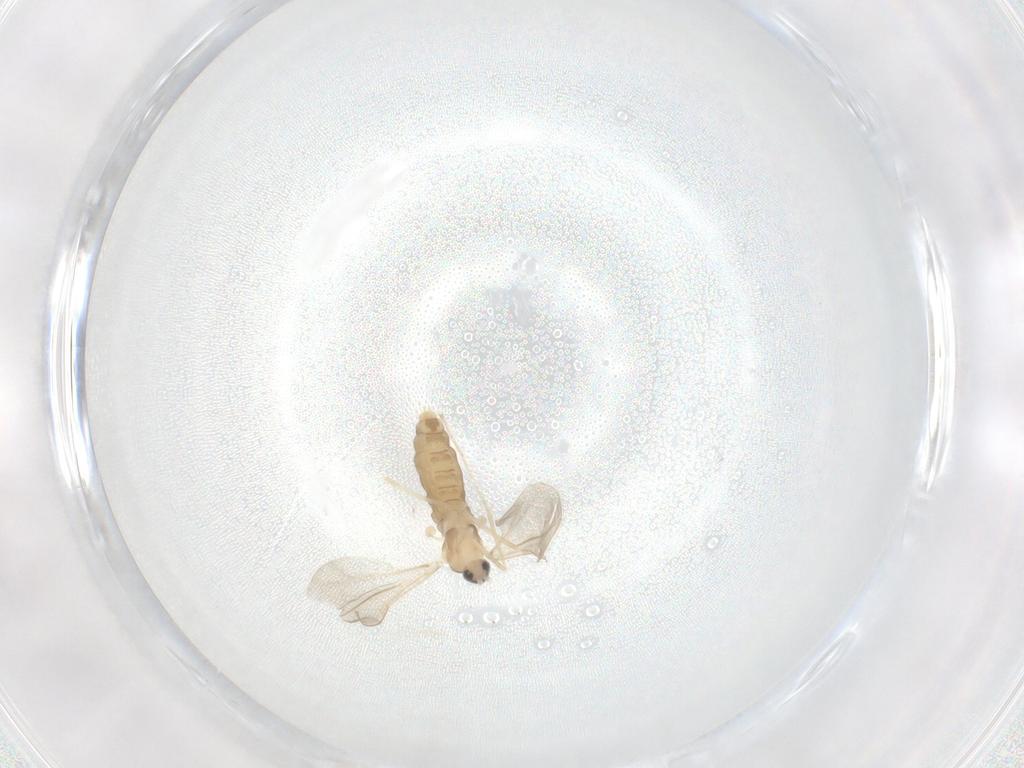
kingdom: Animalia
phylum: Arthropoda
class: Insecta
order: Diptera
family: Cecidomyiidae
